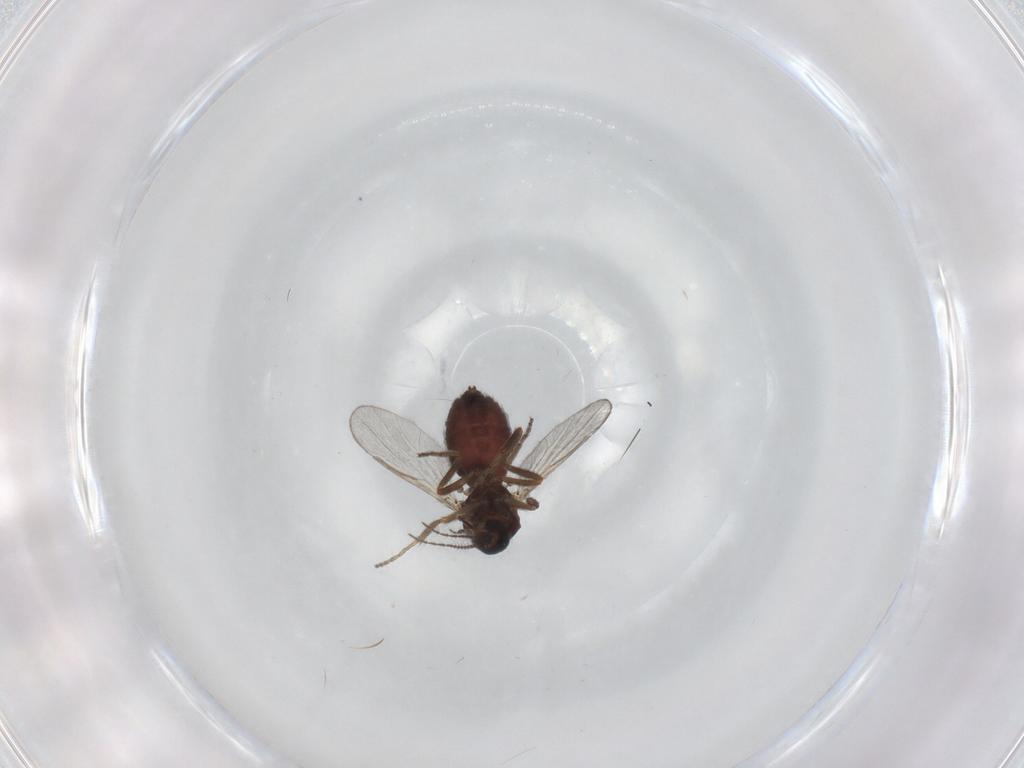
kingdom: Animalia
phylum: Arthropoda
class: Insecta
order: Diptera
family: Ceratopogonidae
